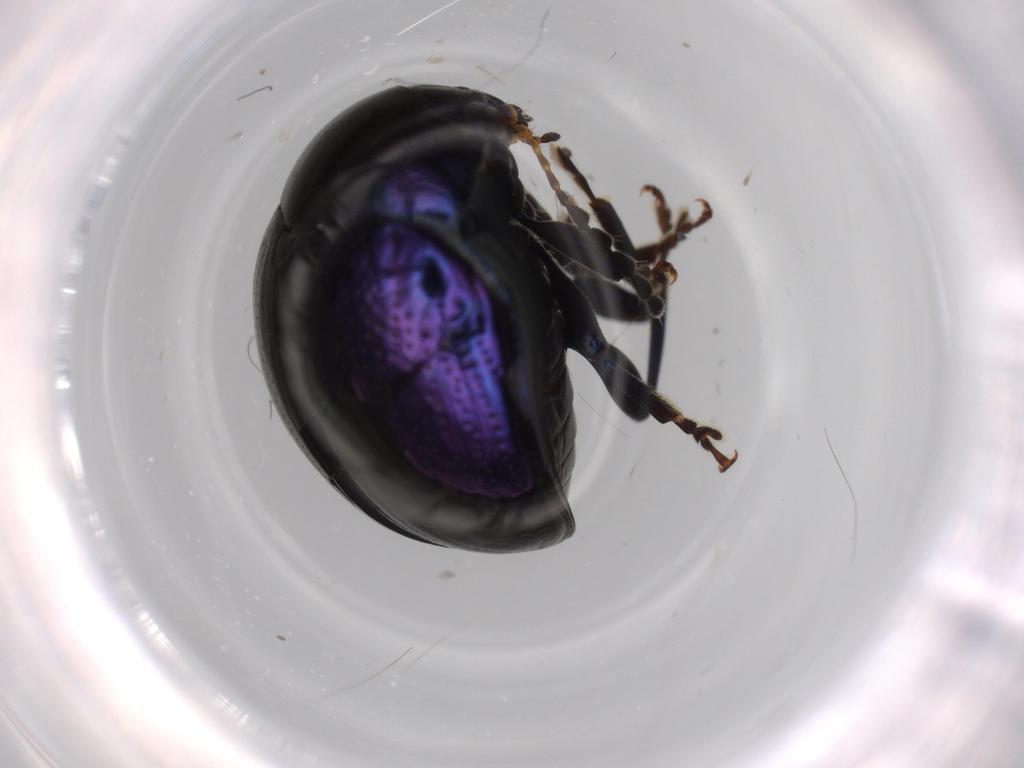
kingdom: Animalia
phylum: Arthropoda
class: Insecta
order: Coleoptera
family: Chrysomelidae
